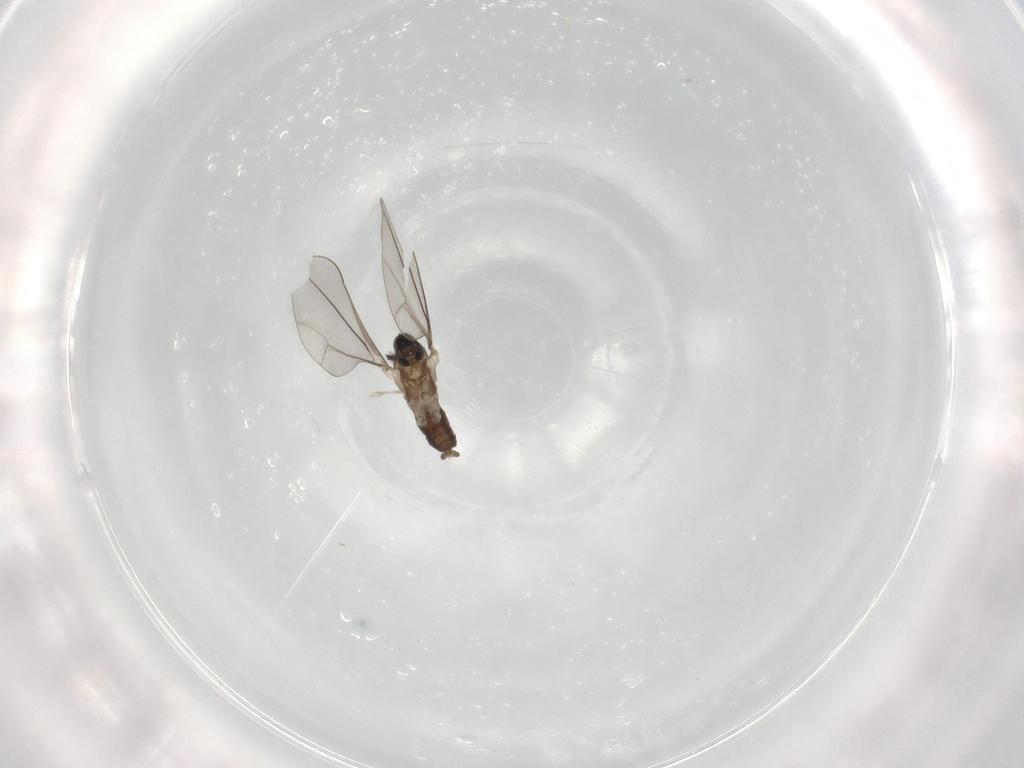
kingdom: Animalia
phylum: Arthropoda
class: Insecta
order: Diptera
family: Cecidomyiidae
